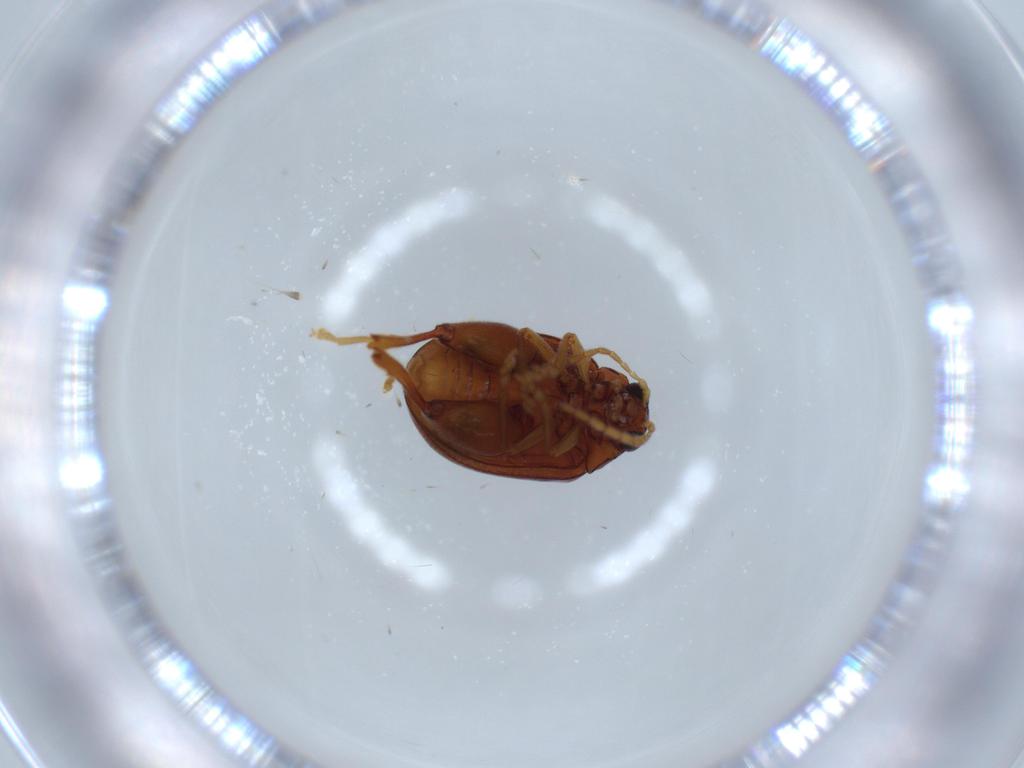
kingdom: Animalia
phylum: Arthropoda
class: Insecta
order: Coleoptera
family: Chrysomelidae
